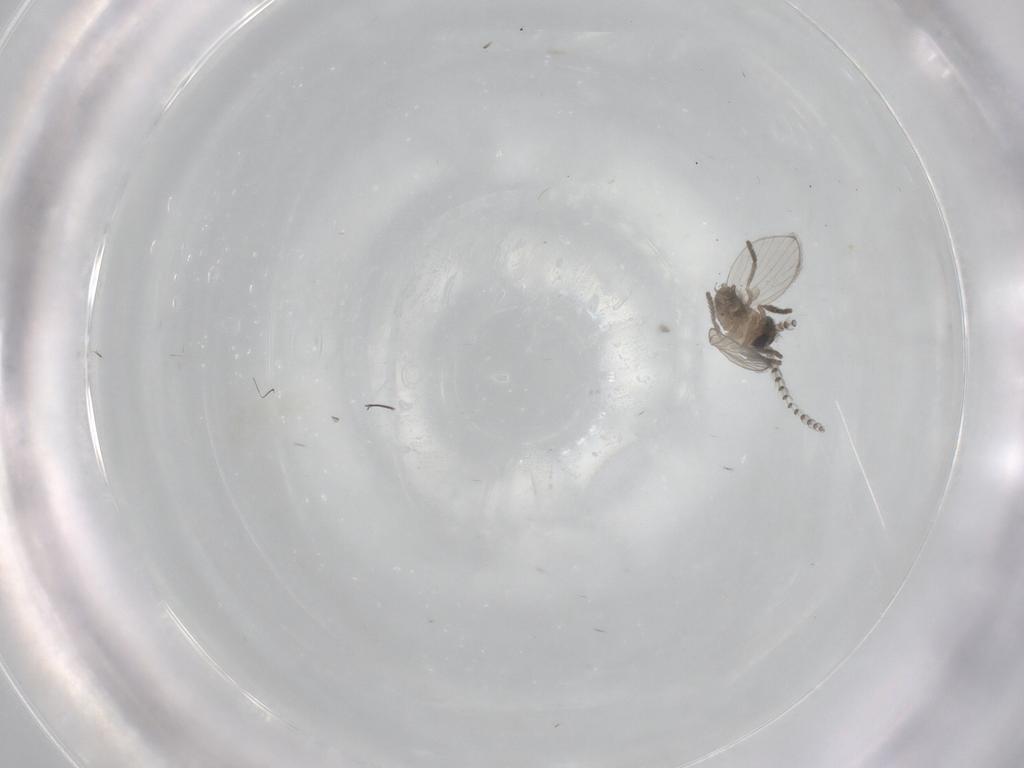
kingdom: Animalia
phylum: Arthropoda
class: Insecta
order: Diptera
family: Psychodidae
